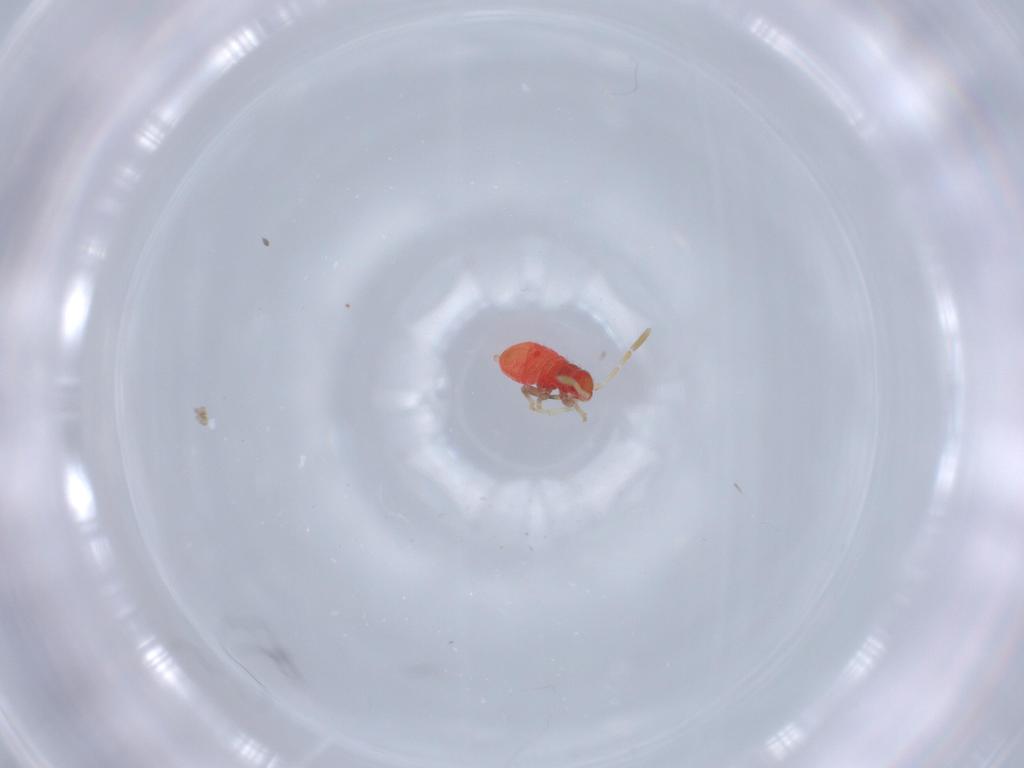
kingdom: Animalia
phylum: Arthropoda
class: Insecta
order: Hemiptera
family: Miridae
